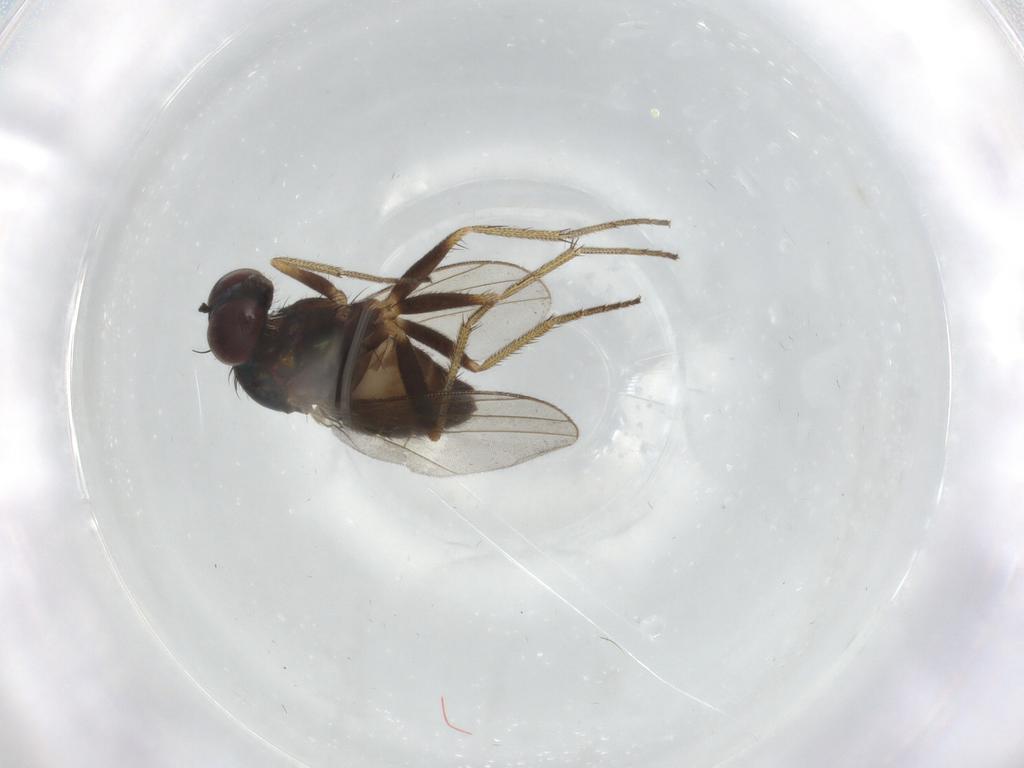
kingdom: Animalia
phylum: Arthropoda
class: Insecta
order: Diptera
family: Dolichopodidae
